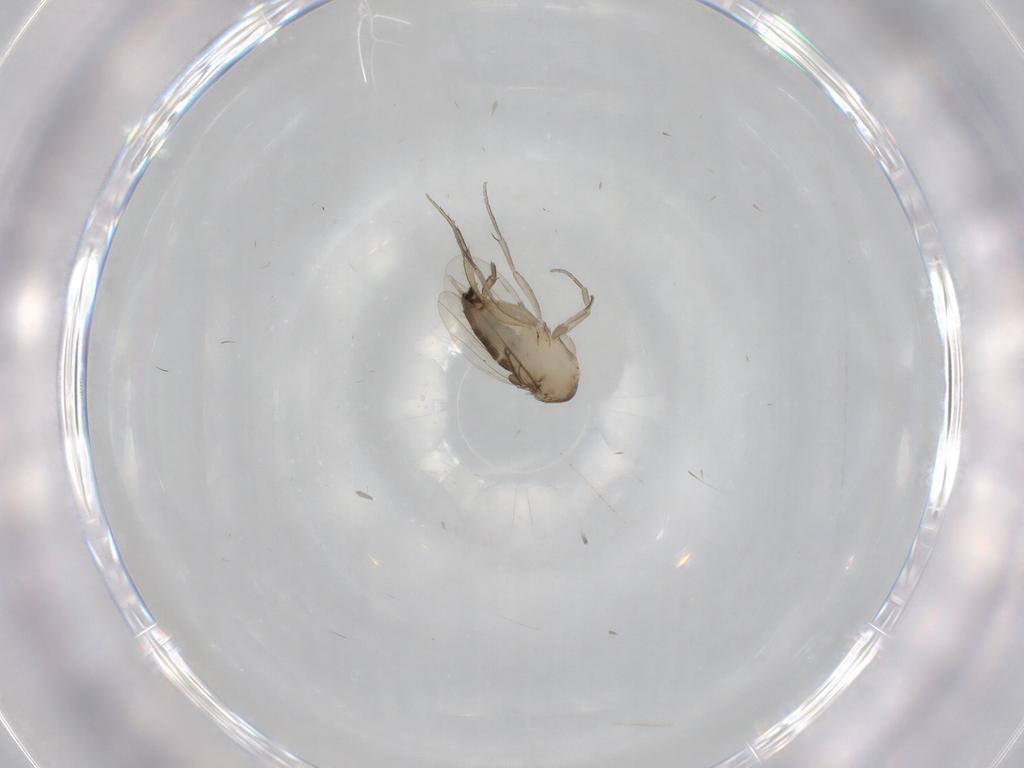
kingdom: Animalia
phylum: Arthropoda
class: Insecta
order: Diptera
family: Phoridae
